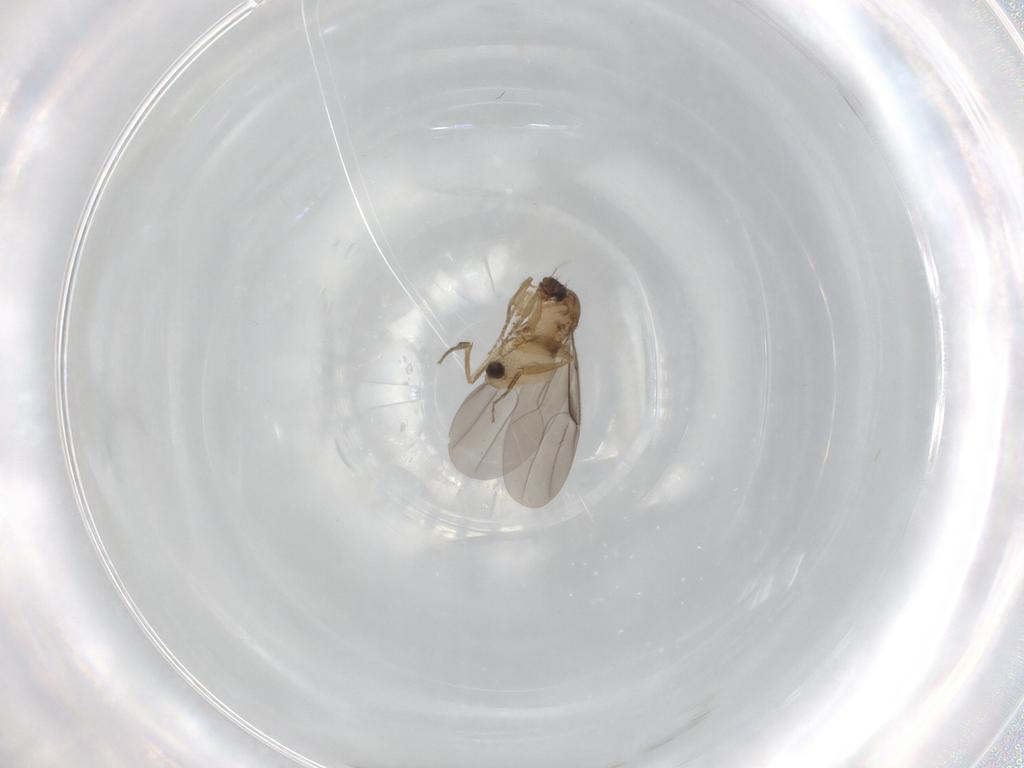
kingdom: Animalia
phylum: Arthropoda
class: Insecta
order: Diptera
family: Phoridae
